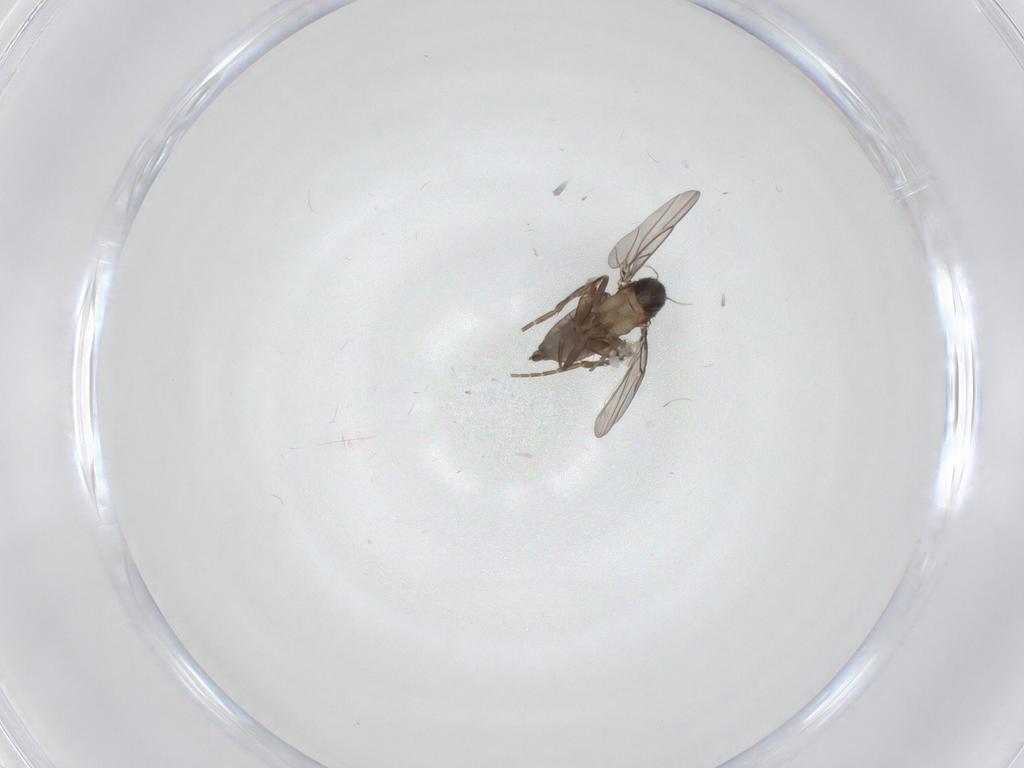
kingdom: Animalia
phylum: Arthropoda
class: Insecta
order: Diptera
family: Phoridae
